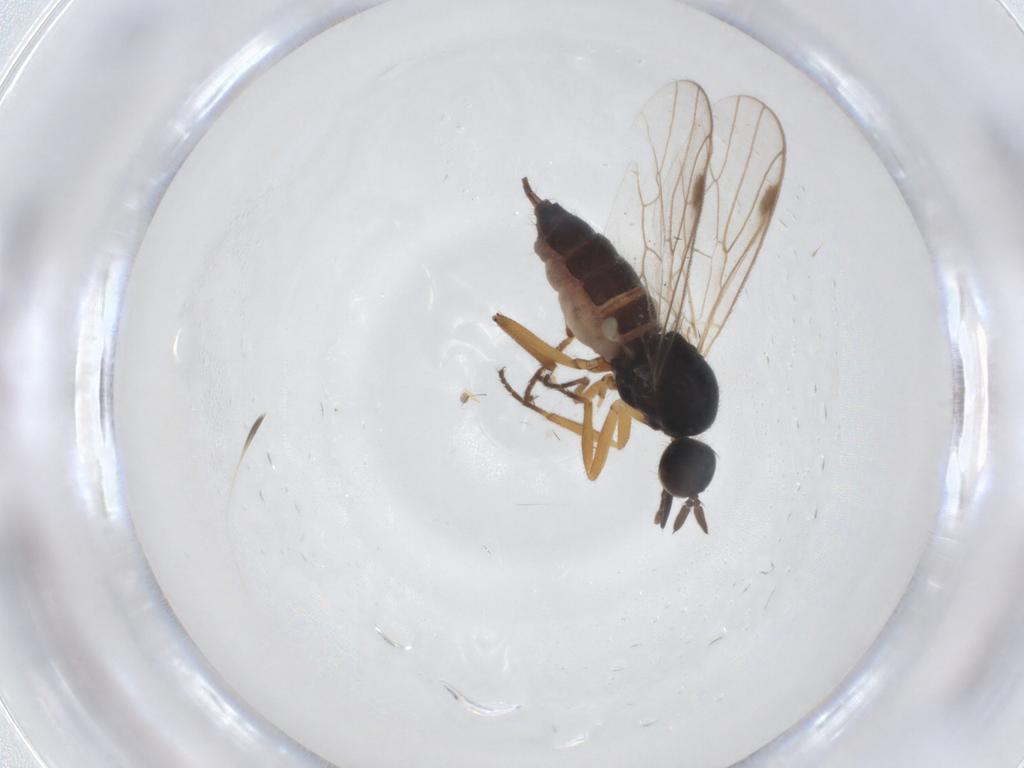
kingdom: Animalia
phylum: Arthropoda
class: Insecta
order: Diptera
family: Hybotidae
